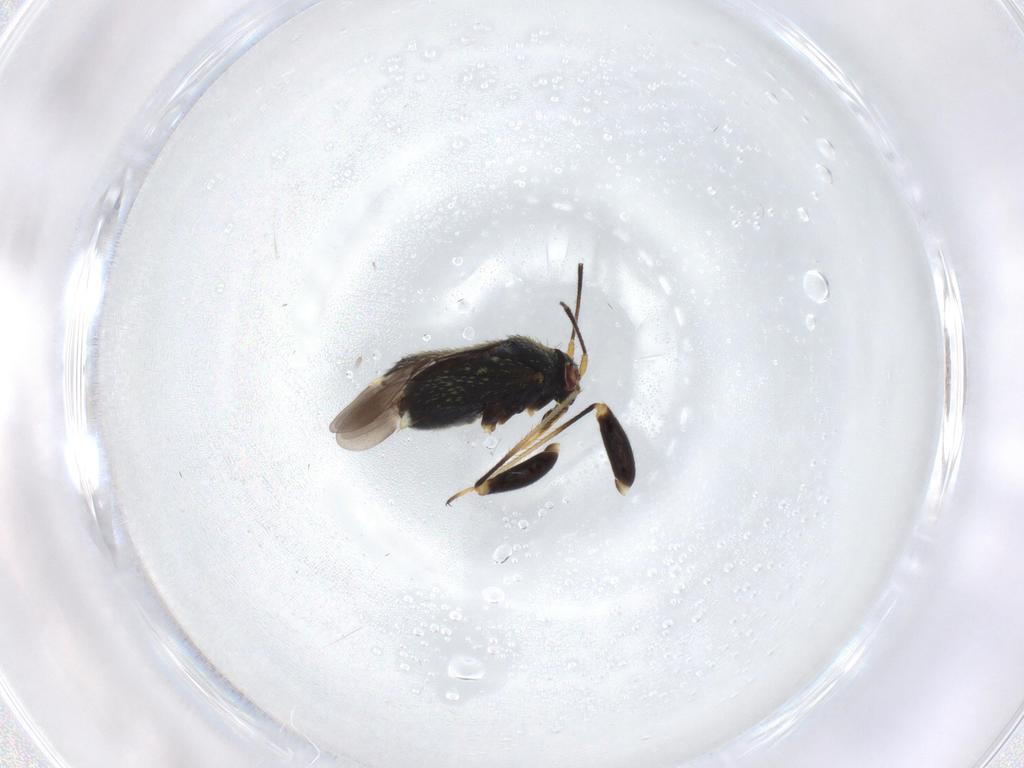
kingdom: Animalia
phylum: Arthropoda
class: Insecta
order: Hemiptera
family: Miridae
